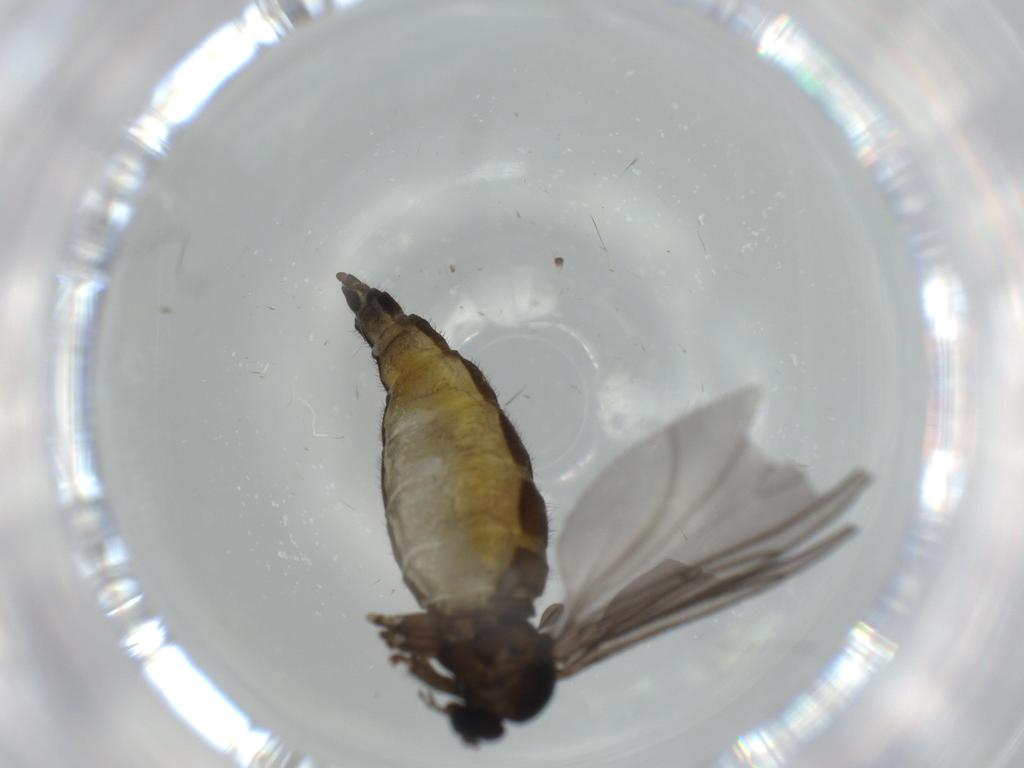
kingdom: Animalia
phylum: Arthropoda
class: Insecta
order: Diptera
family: Sciaridae
